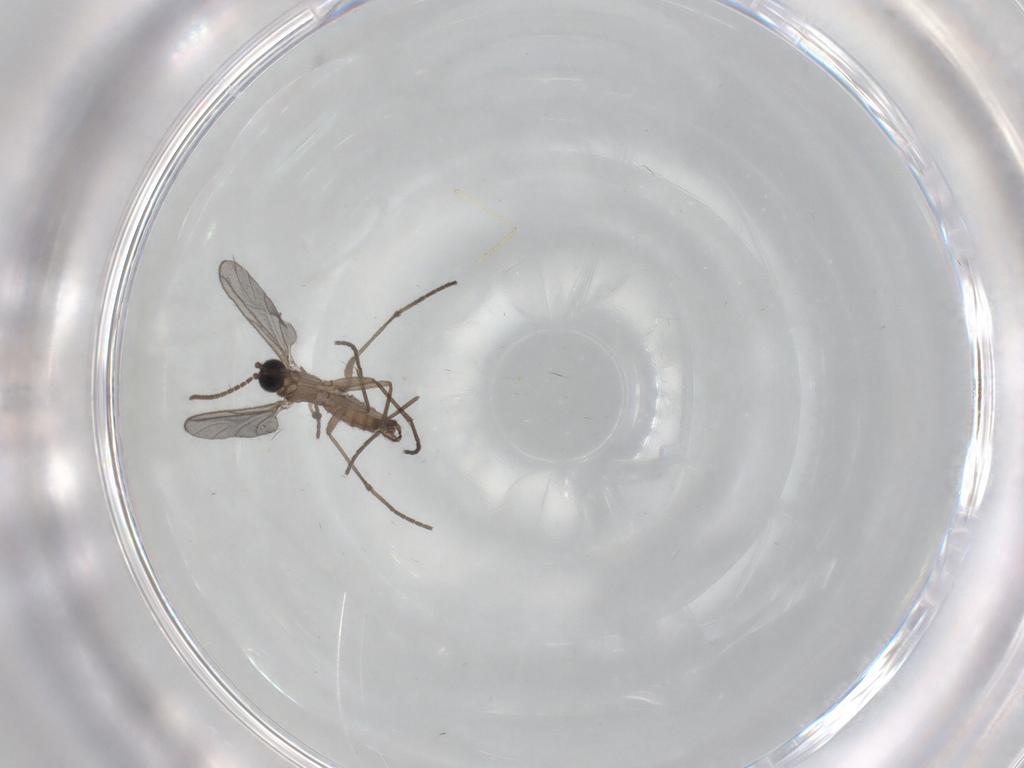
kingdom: Animalia
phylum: Arthropoda
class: Insecta
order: Diptera
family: Sciaridae
